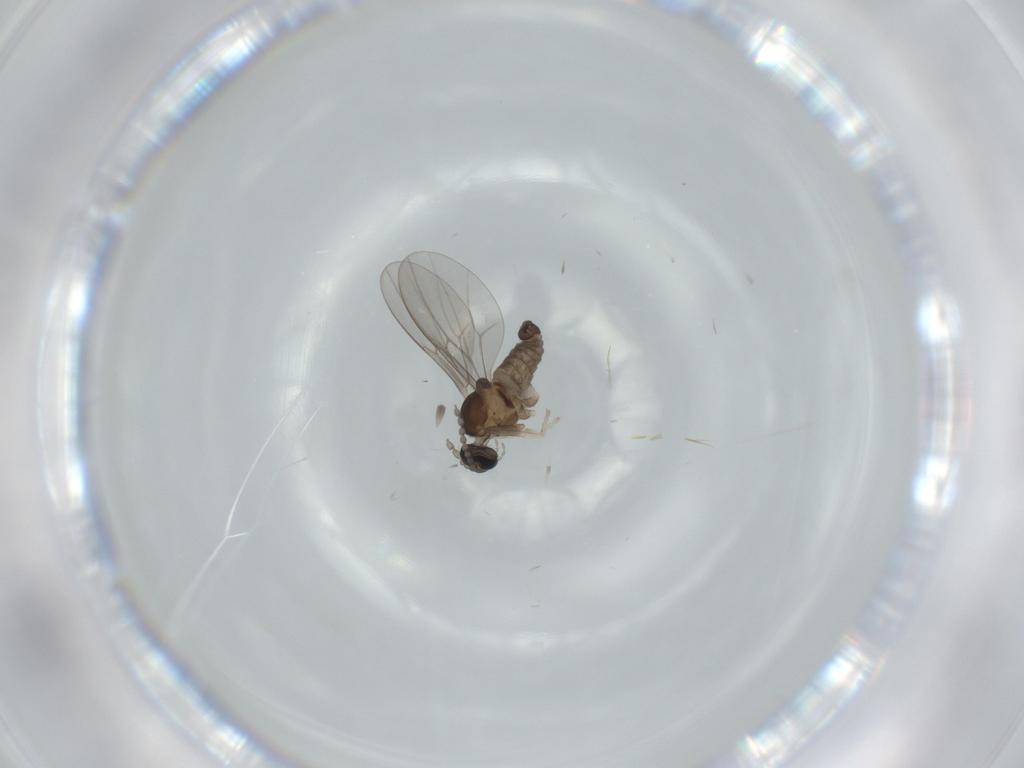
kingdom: Animalia
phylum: Arthropoda
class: Insecta
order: Diptera
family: Cecidomyiidae
